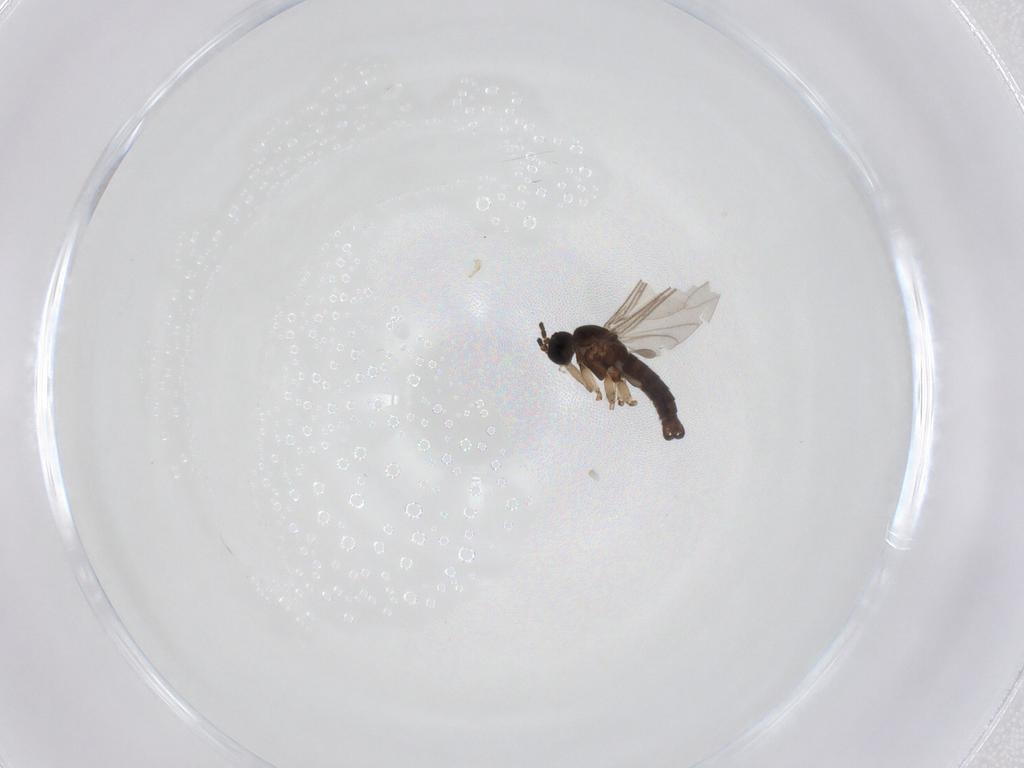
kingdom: Animalia
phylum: Arthropoda
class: Insecta
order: Diptera
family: Sciaridae
